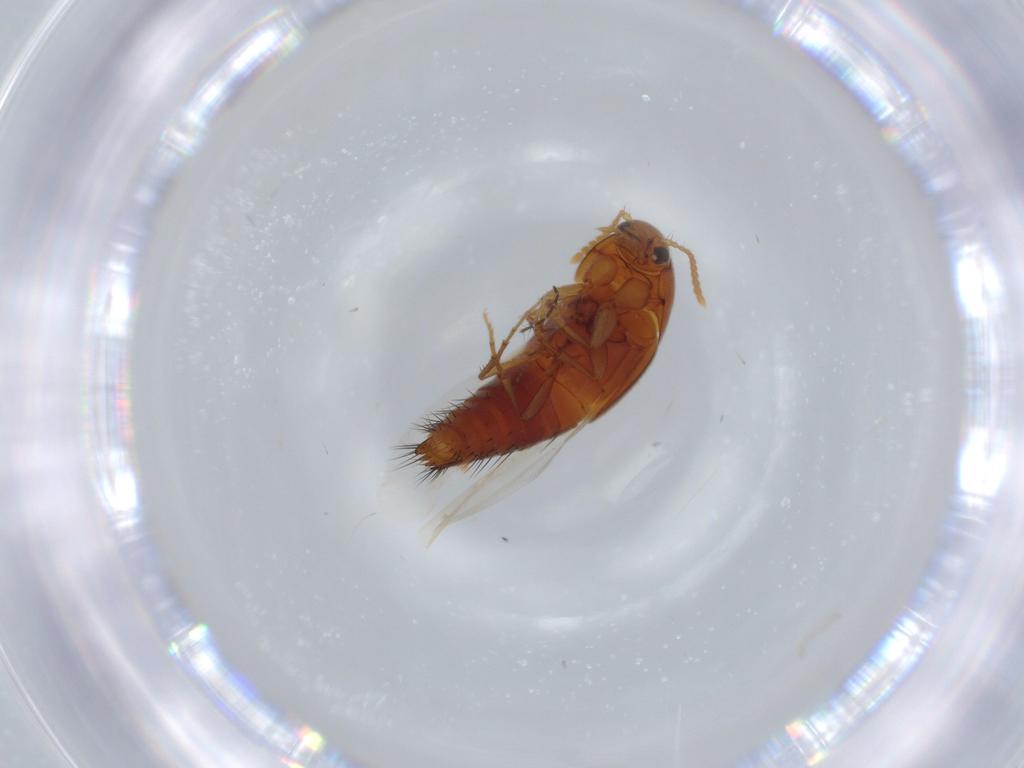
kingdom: Animalia
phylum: Arthropoda
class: Insecta
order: Coleoptera
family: Staphylinidae
